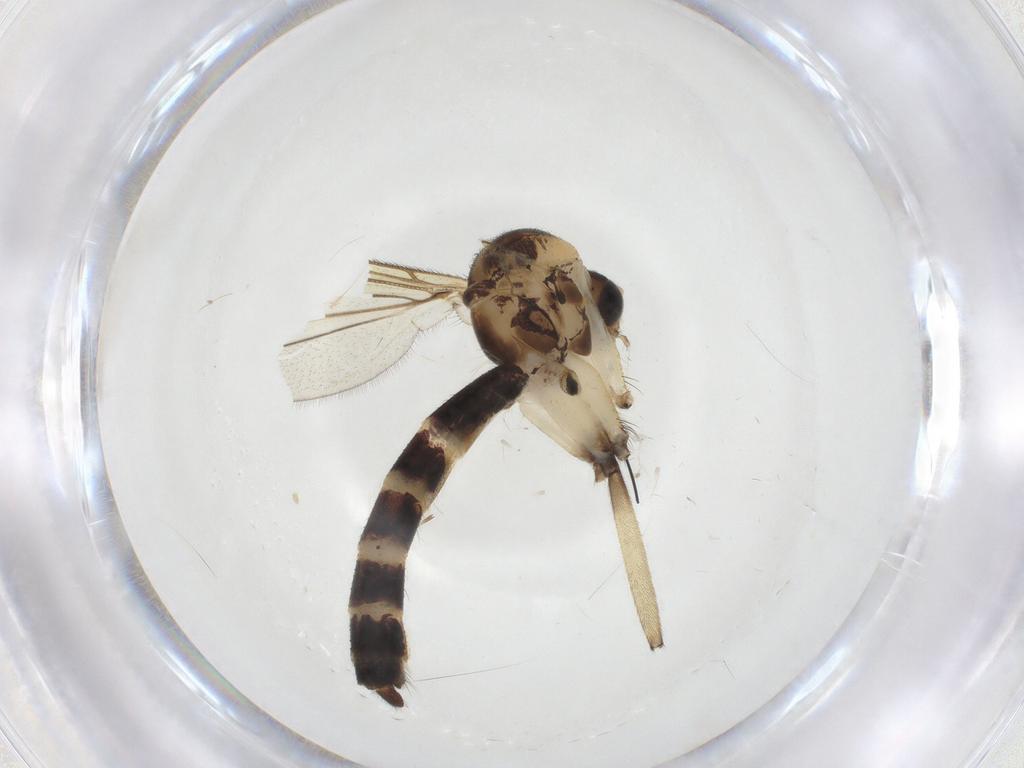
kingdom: Animalia
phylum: Arthropoda
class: Insecta
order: Diptera
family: Mycetophilidae
